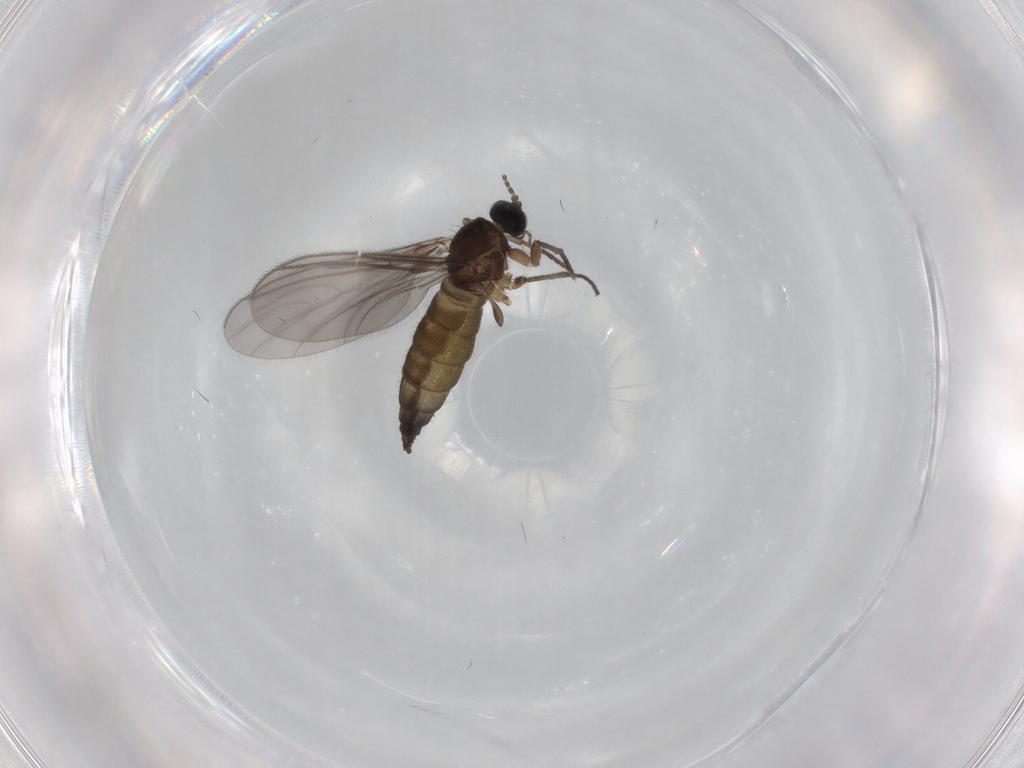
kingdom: Animalia
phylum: Arthropoda
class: Insecta
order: Diptera
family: Sciaridae
